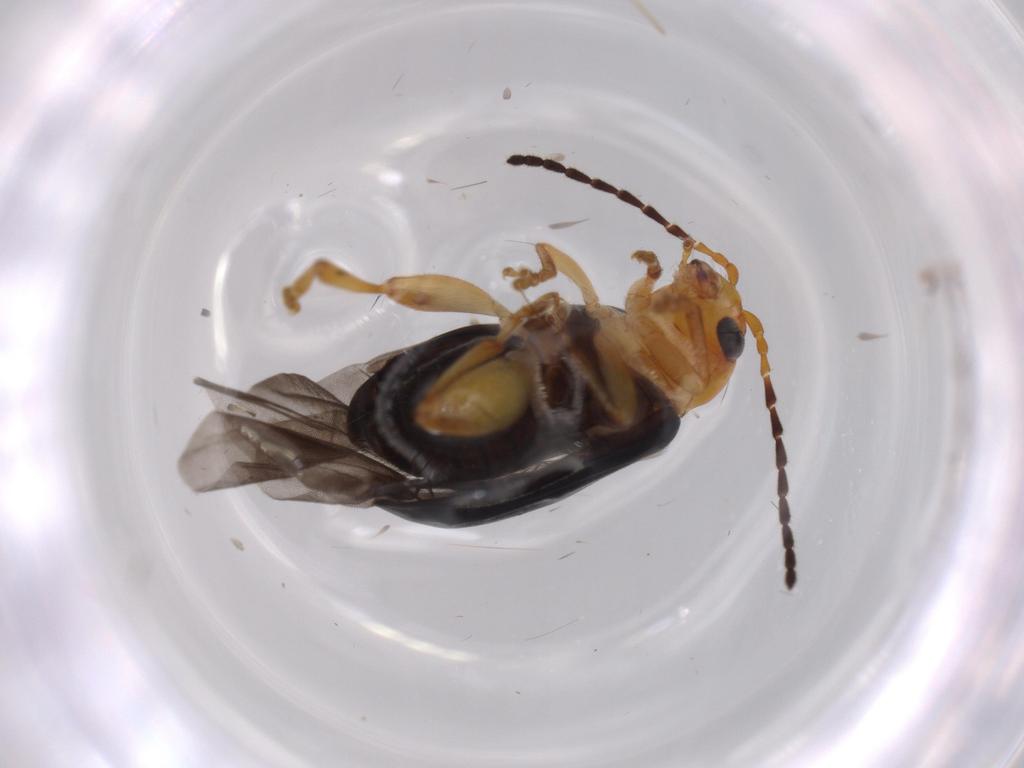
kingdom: Animalia
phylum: Arthropoda
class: Insecta
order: Coleoptera
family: Chrysomelidae
